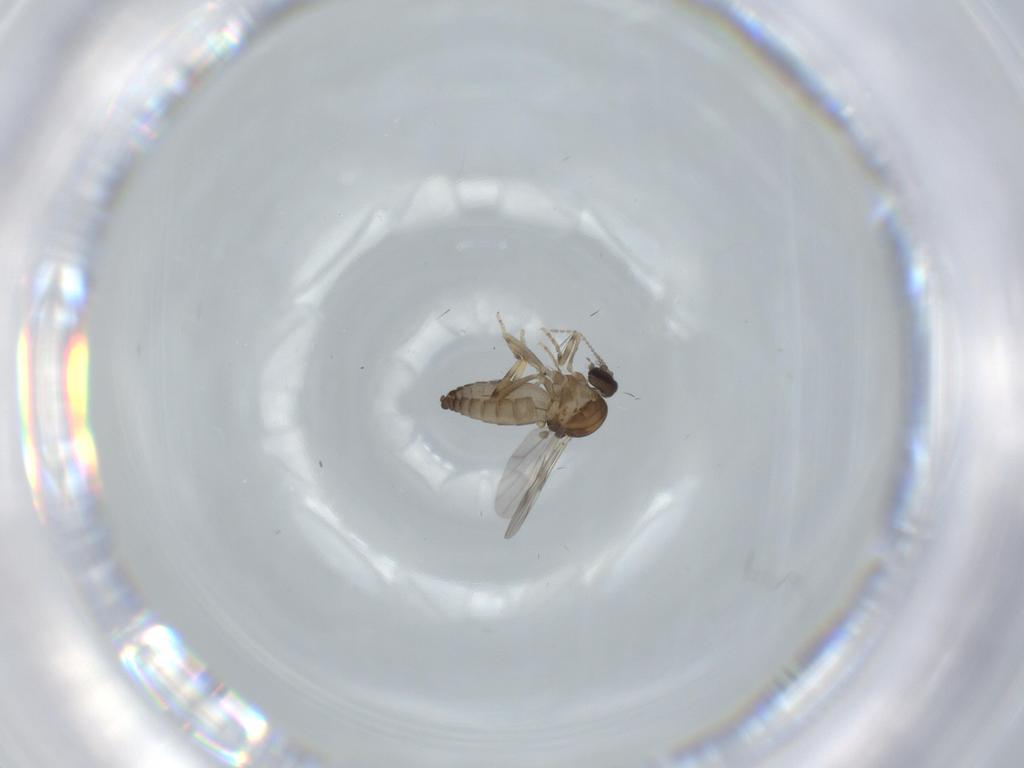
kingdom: Animalia
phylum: Arthropoda
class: Insecta
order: Diptera
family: Ceratopogonidae
